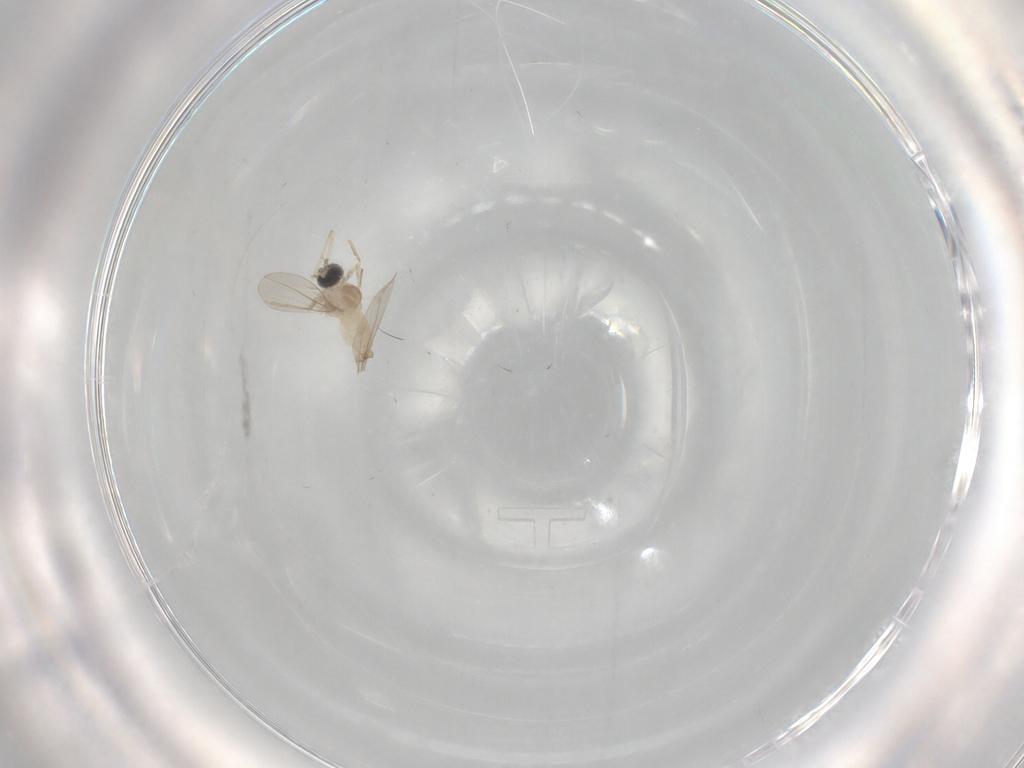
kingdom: Animalia
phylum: Arthropoda
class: Insecta
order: Diptera
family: Cecidomyiidae
